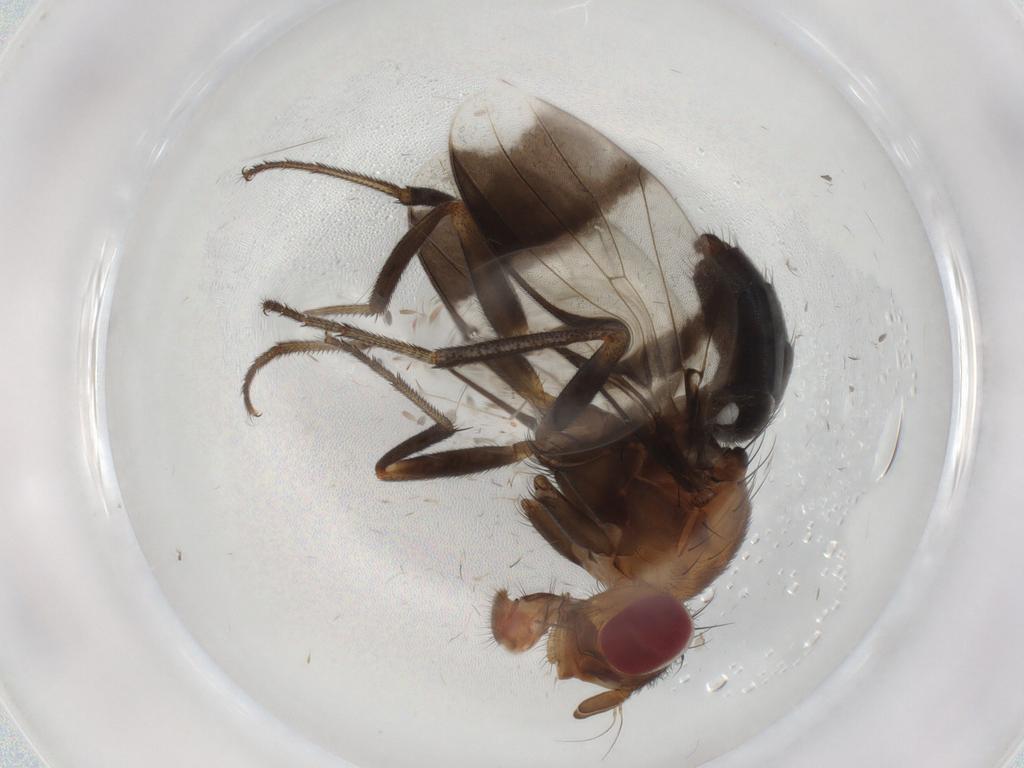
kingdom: Animalia
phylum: Arthropoda
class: Insecta
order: Diptera
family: Richardiidae
